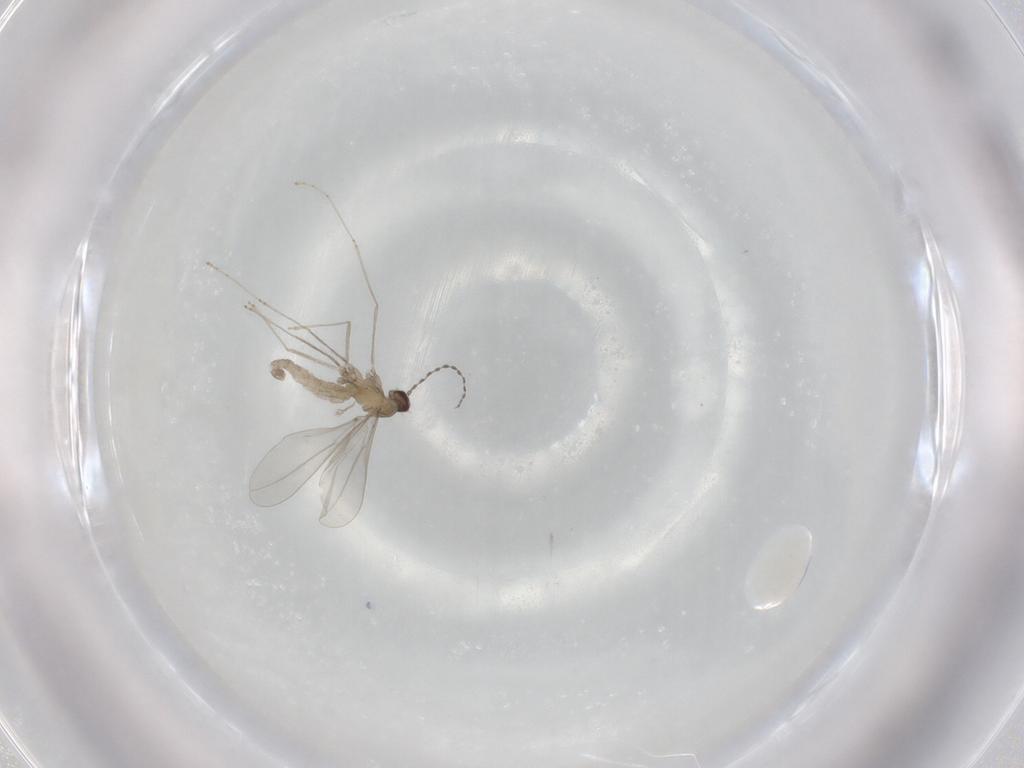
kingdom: Animalia
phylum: Arthropoda
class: Insecta
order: Diptera
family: Cecidomyiidae
